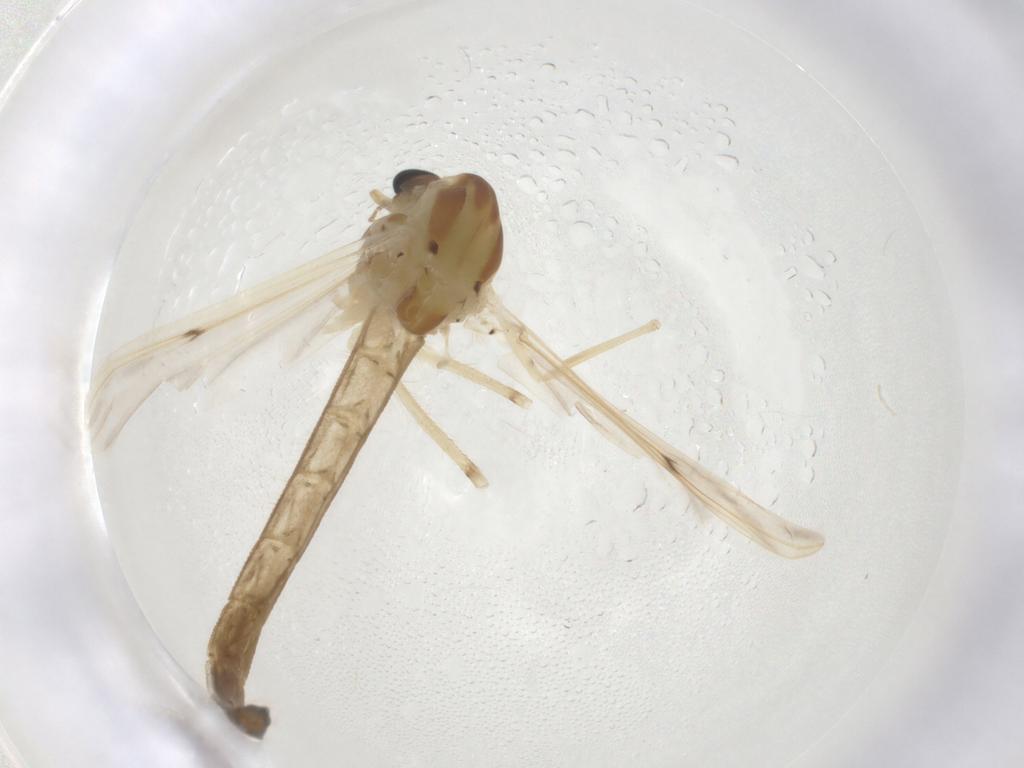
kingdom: Animalia
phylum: Arthropoda
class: Insecta
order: Diptera
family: Chironomidae
